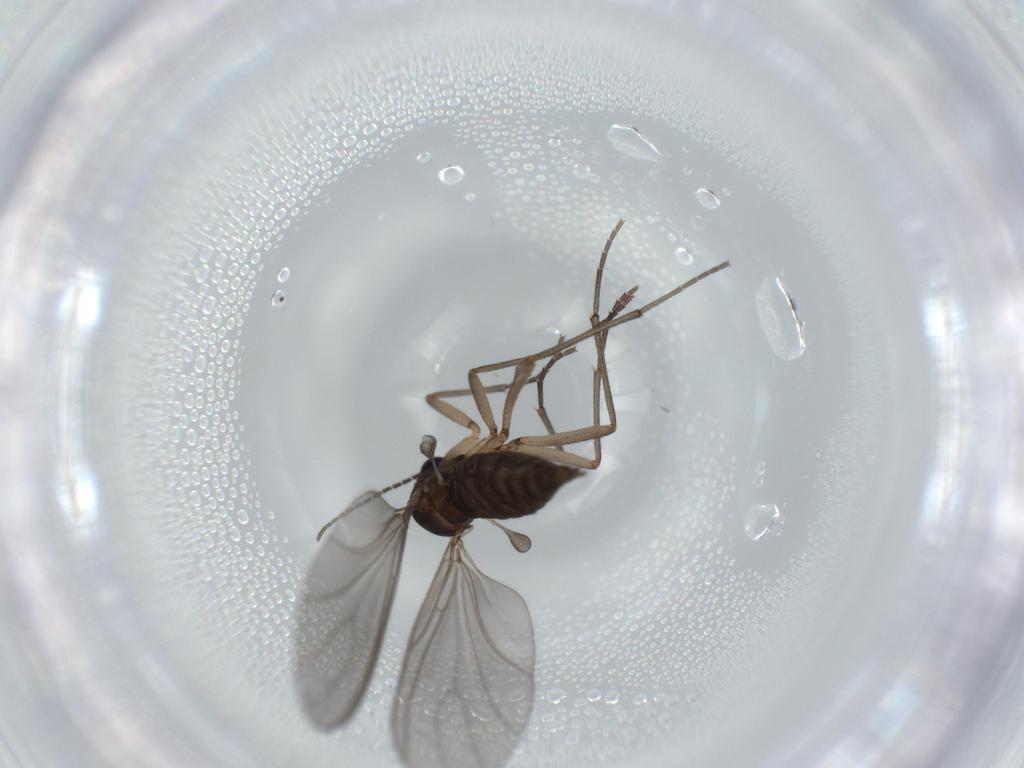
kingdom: Animalia
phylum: Arthropoda
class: Insecta
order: Diptera
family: Sciaridae
